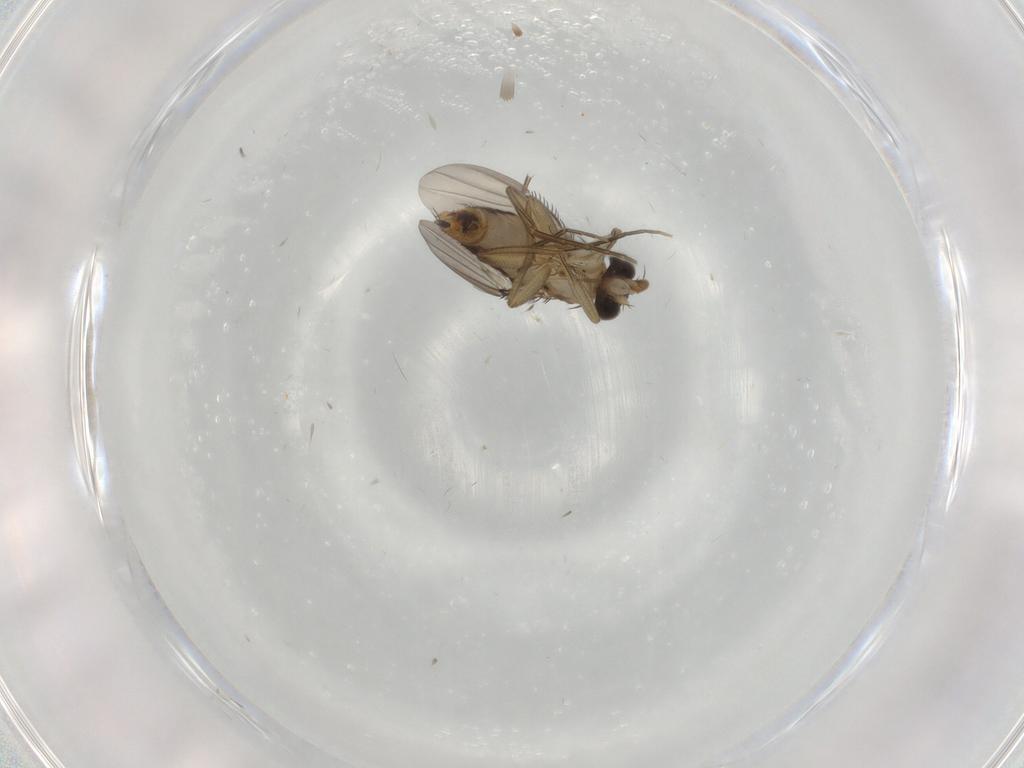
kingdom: Animalia
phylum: Arthropoda
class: Insecta
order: Diptera
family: Phoridae
